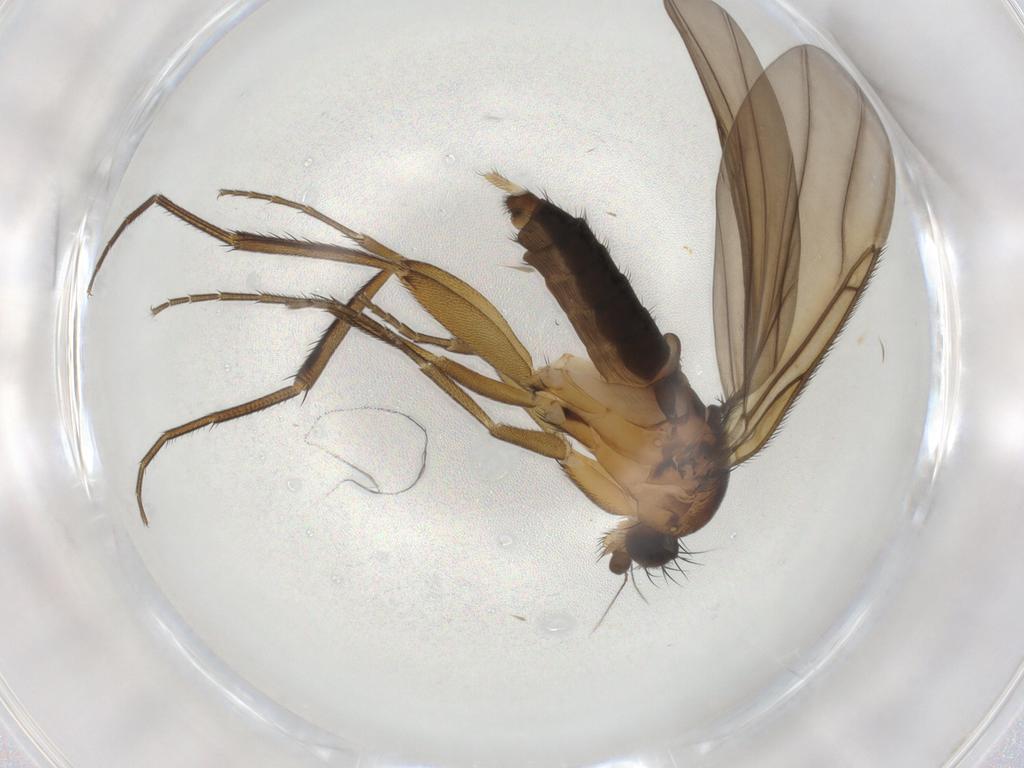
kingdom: Animalia
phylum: Arthropoda
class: Insecta
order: Diptera
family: Phoridae
